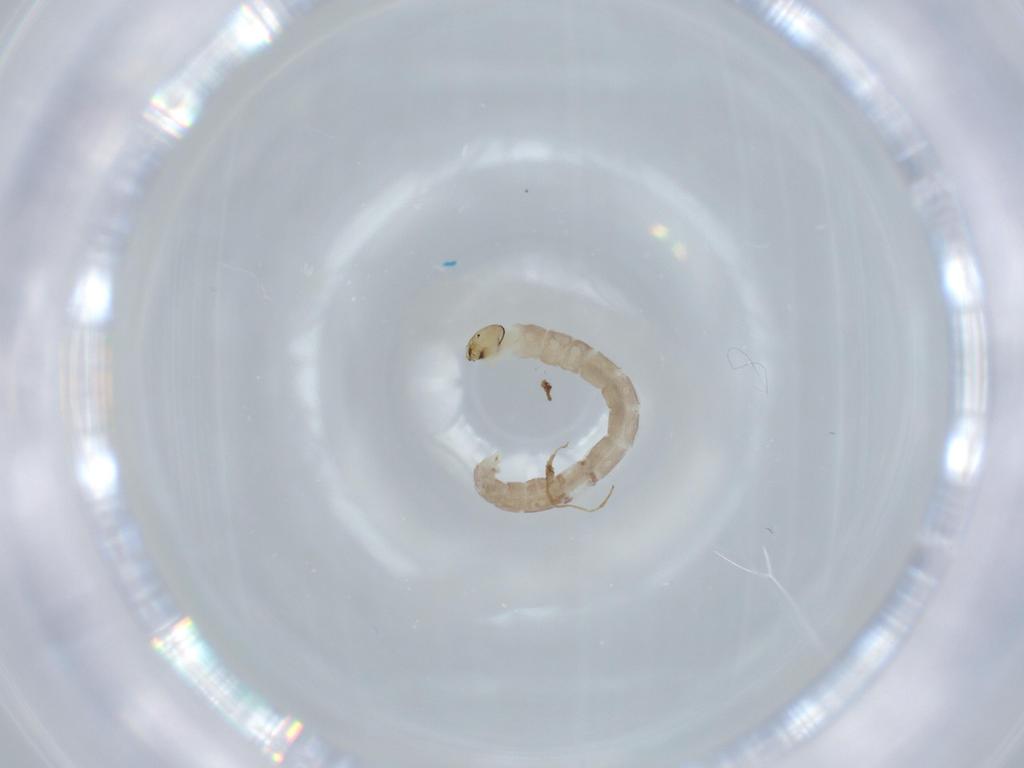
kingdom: Animalia
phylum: Arthropoda
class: Insecta
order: Diptera
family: Chironomidae
